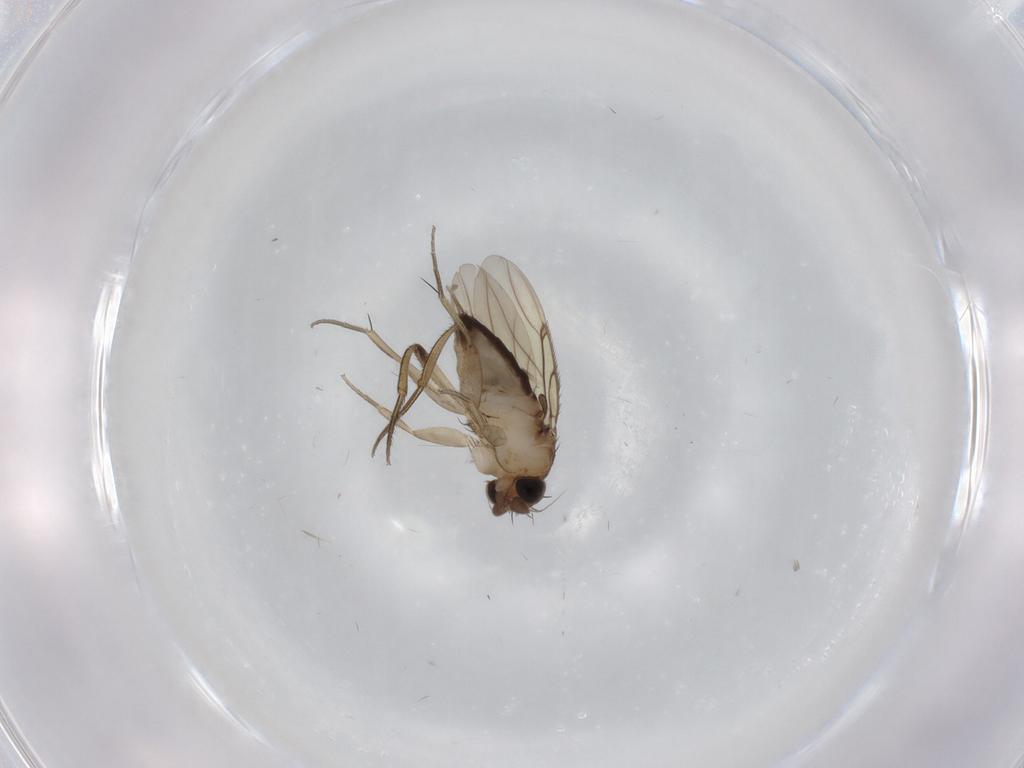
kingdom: Animalia
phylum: Arthropoda
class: Insecta
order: Diptera
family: Phoridae
